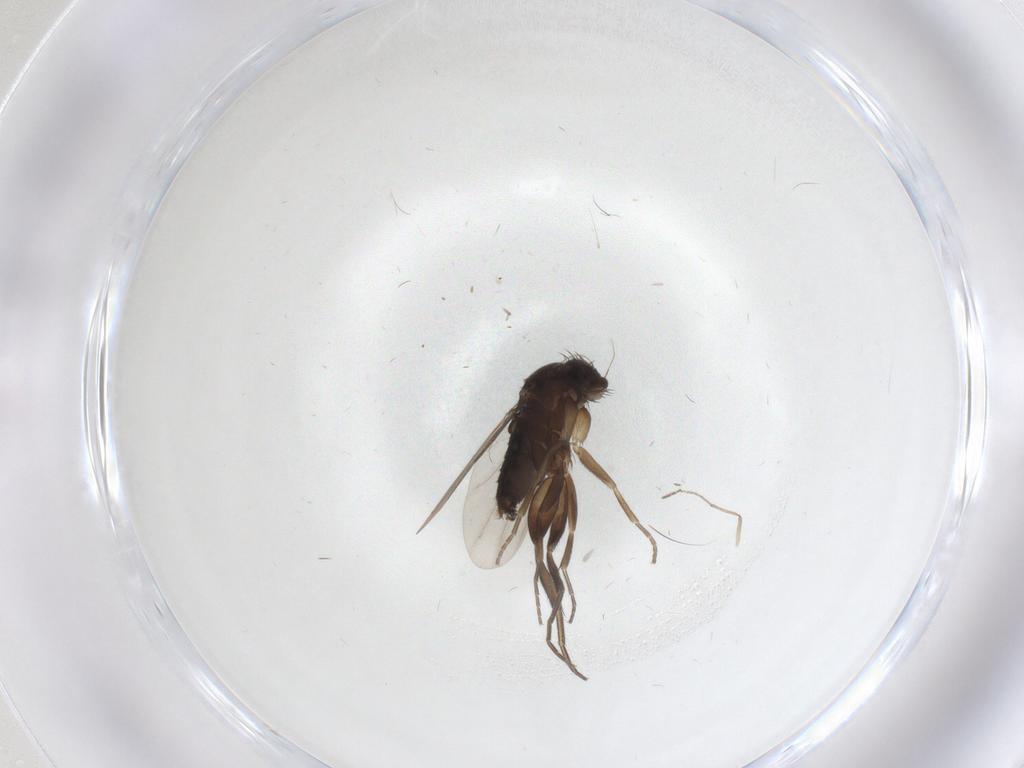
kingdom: Animalia
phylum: Arthropoda
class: Insecta
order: Diptera
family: Phoridae
